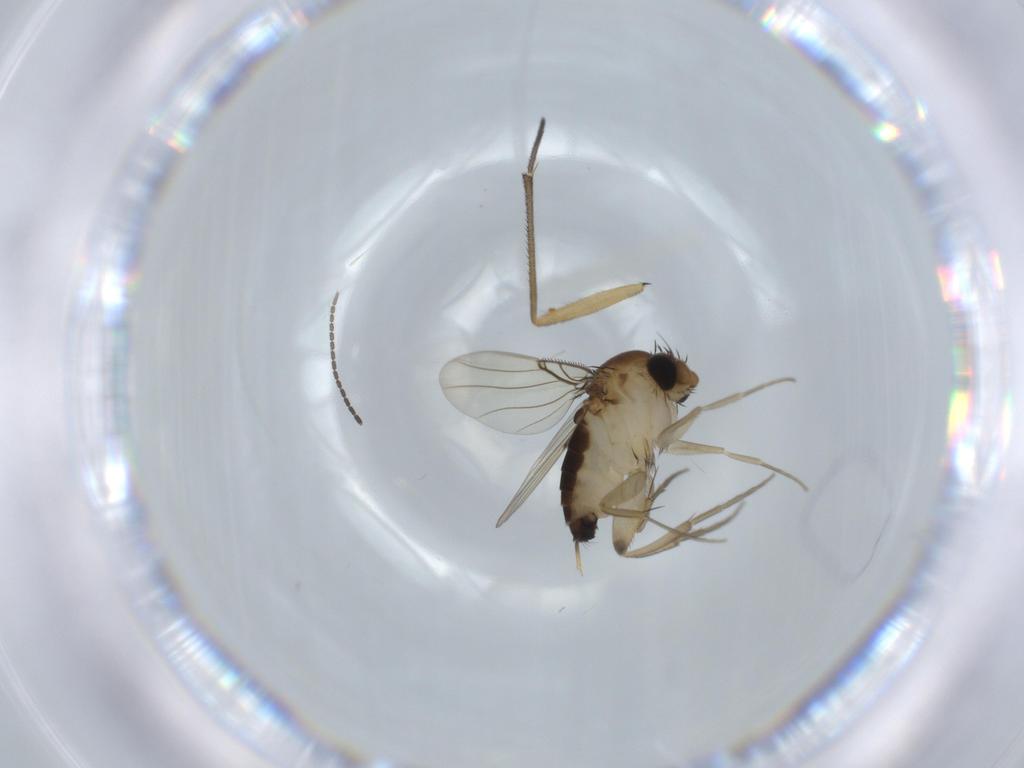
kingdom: Animalia
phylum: Arthropoda
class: Insecta
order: Diptera
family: Phoridae
